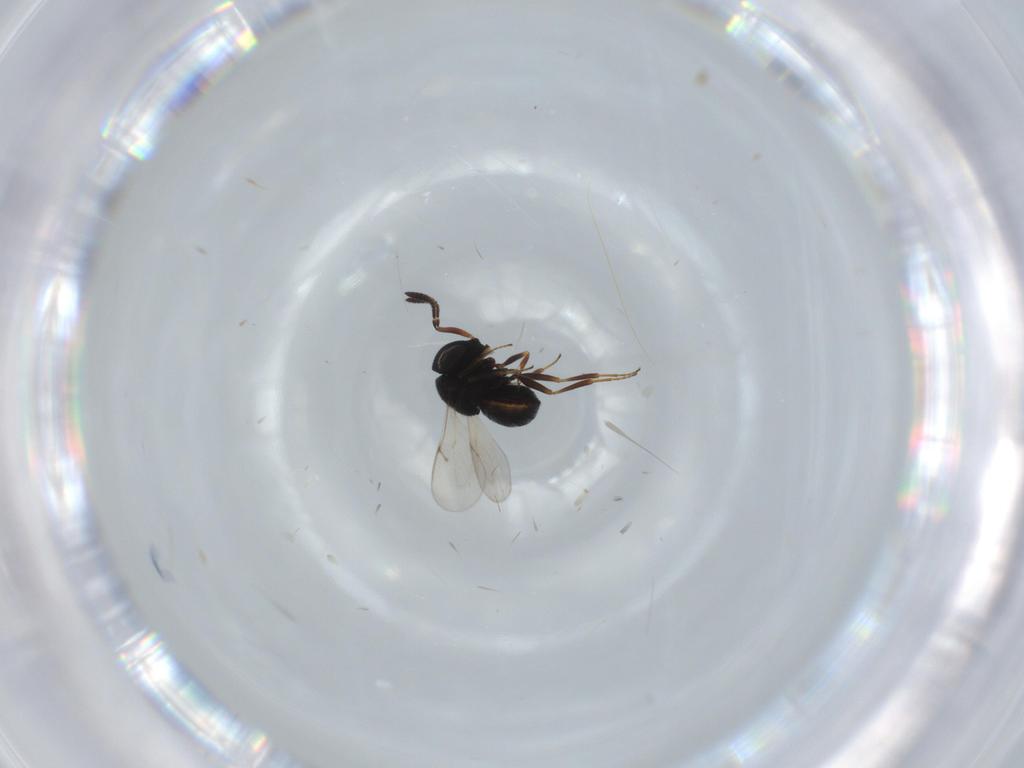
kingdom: Animalia
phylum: Arthropoda
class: Insecta
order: Hymenoptera
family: Scelionidae
